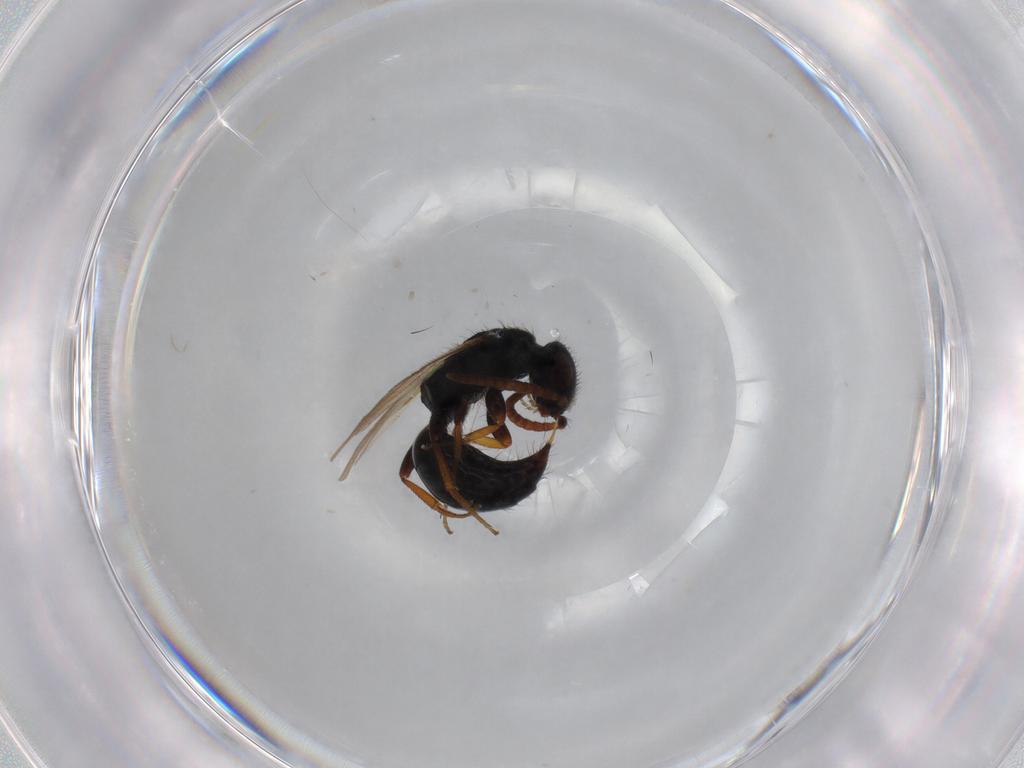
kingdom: Animalia
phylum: Arthropoda
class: Insecta
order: Hymenoptera
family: Bethylidae
